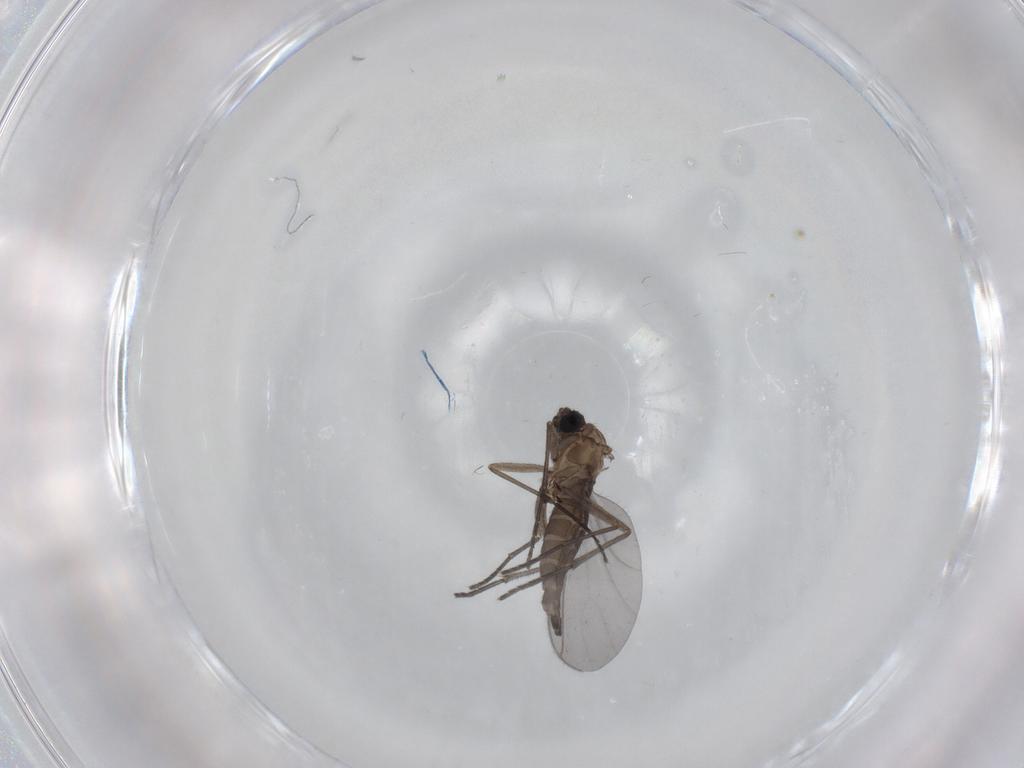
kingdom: Animalia
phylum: Arthropoda
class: Insecta
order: Diptera
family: Sciaridae
